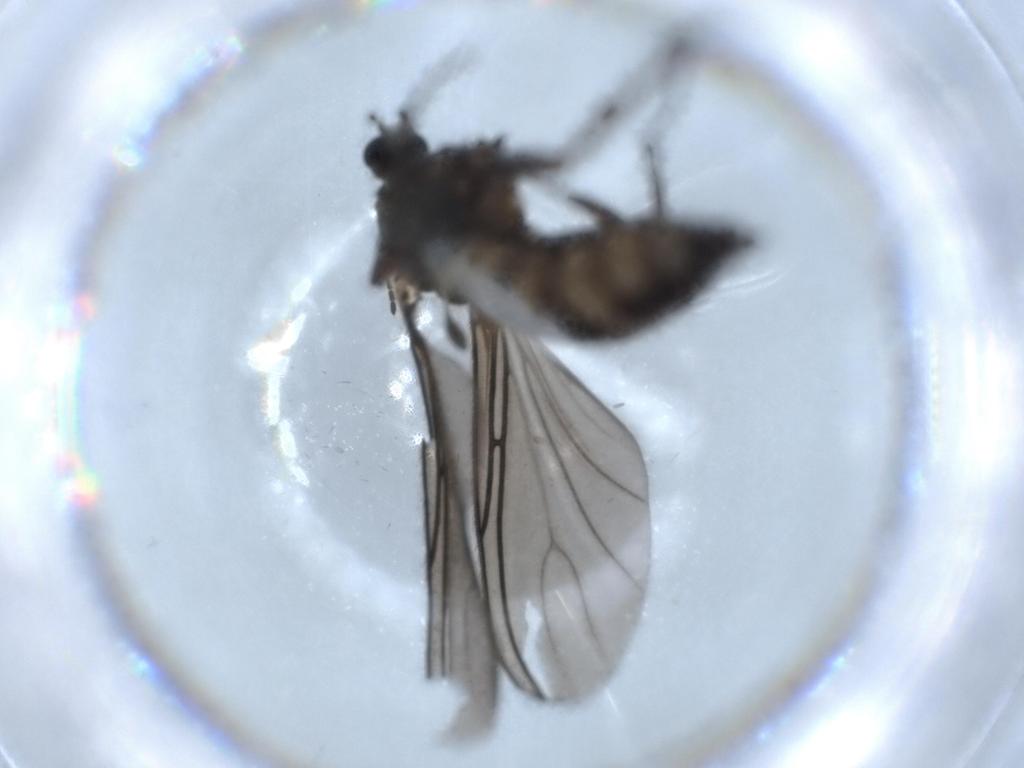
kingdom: Animalia
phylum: Arthropoda
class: Insecta
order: Diptera
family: Sciaridae
